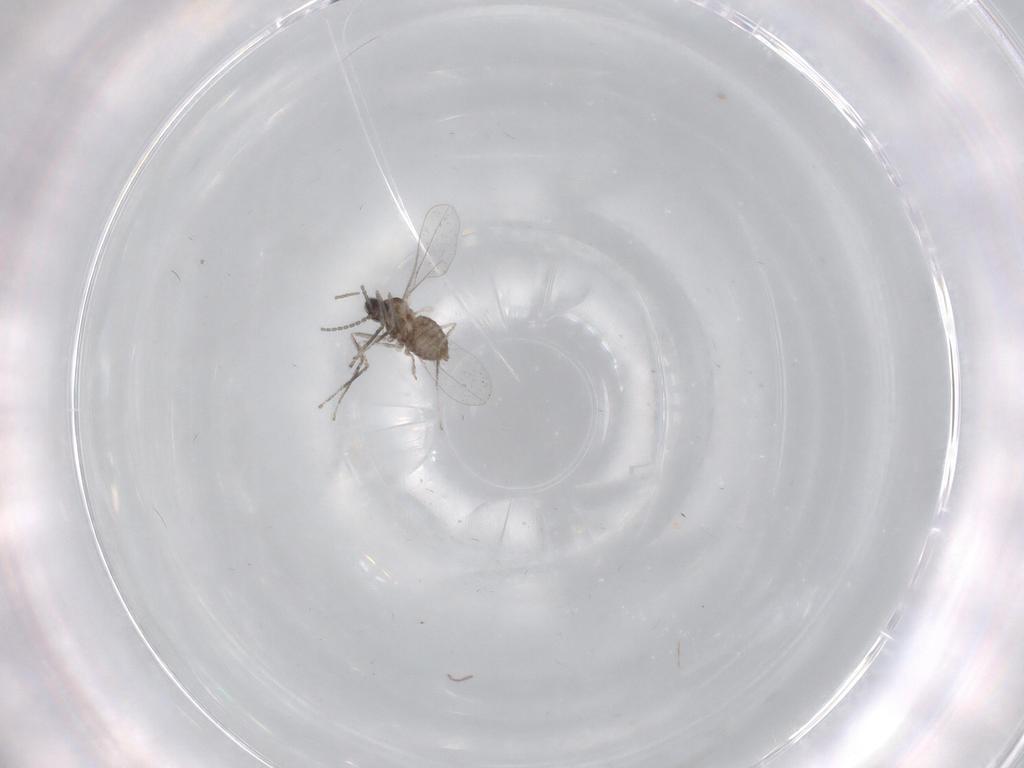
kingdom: Animalia
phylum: Arthropoda
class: Insecta
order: Diptera
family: Cecidomyiidae
